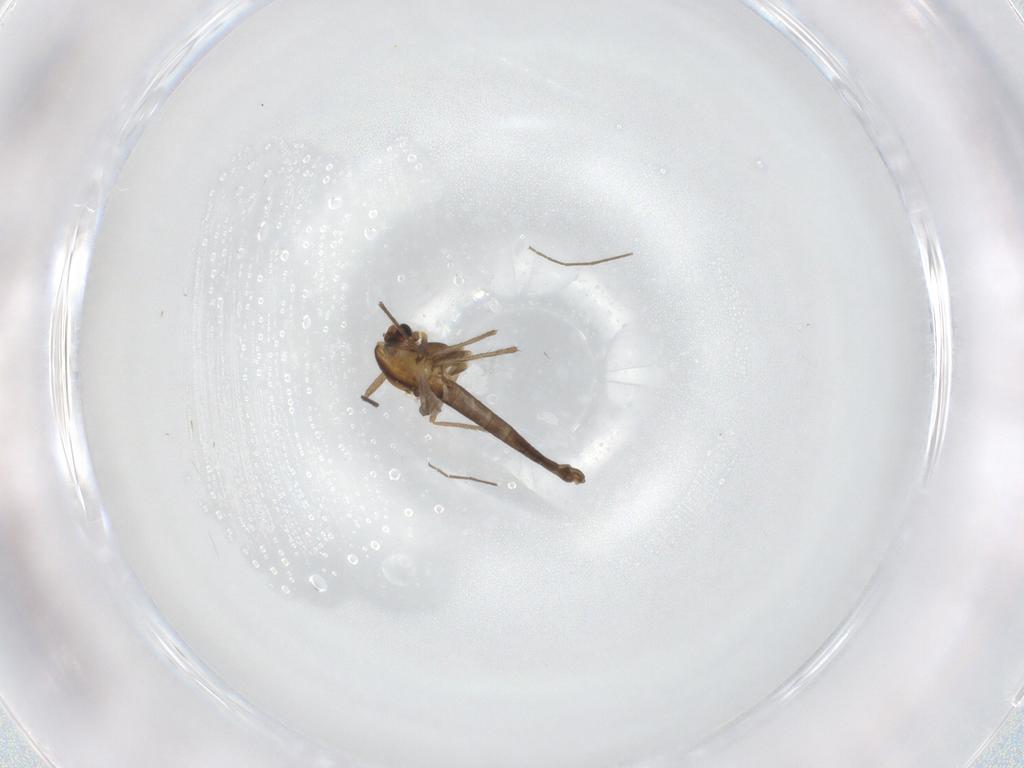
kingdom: Animalia
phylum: Arthropoda
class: Insecta
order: Diptera
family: Chironomidae
